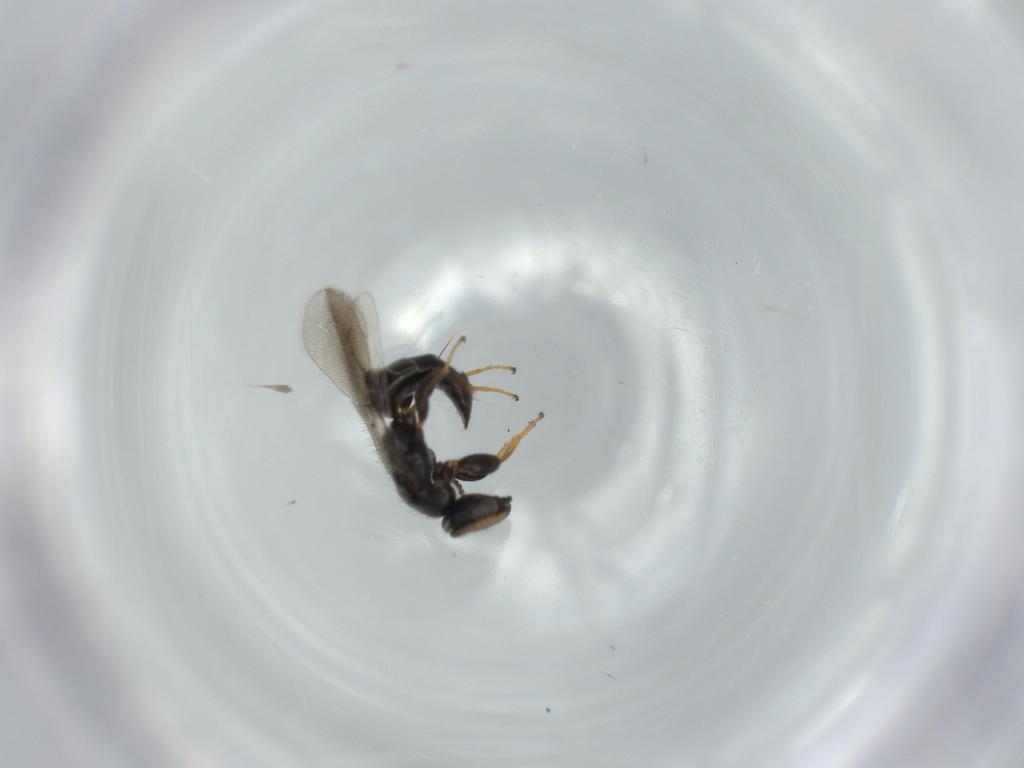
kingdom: Animalia
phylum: Arthropoda
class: Insecta
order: Hymenoptera
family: Bethylidae
